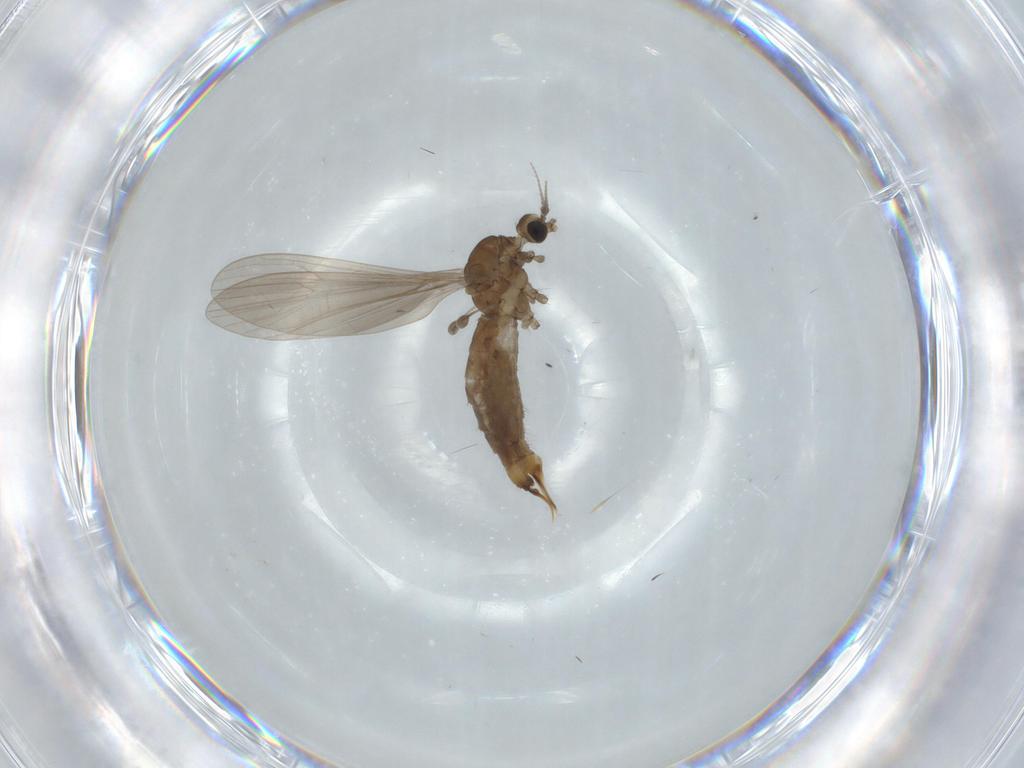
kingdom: Animalia
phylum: Arthropoda
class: Insecta
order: Diptera
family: Limoniidae
